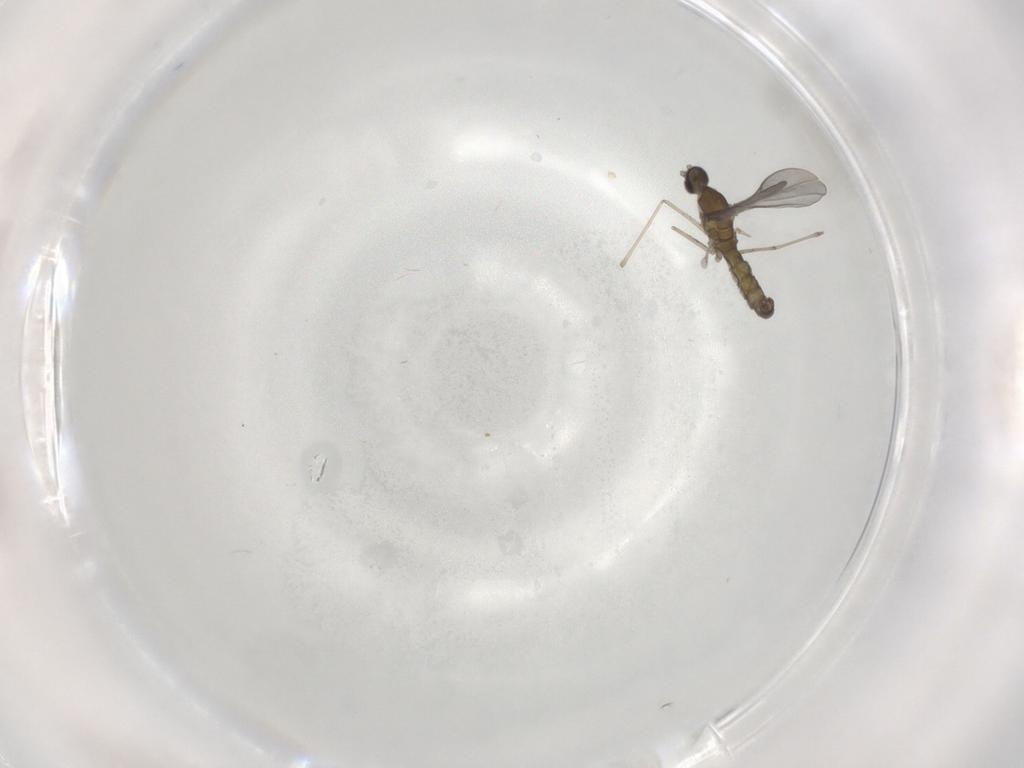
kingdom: Animalia
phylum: Arthropoda
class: Insecta
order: Diptera
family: Cecidomyiidae
